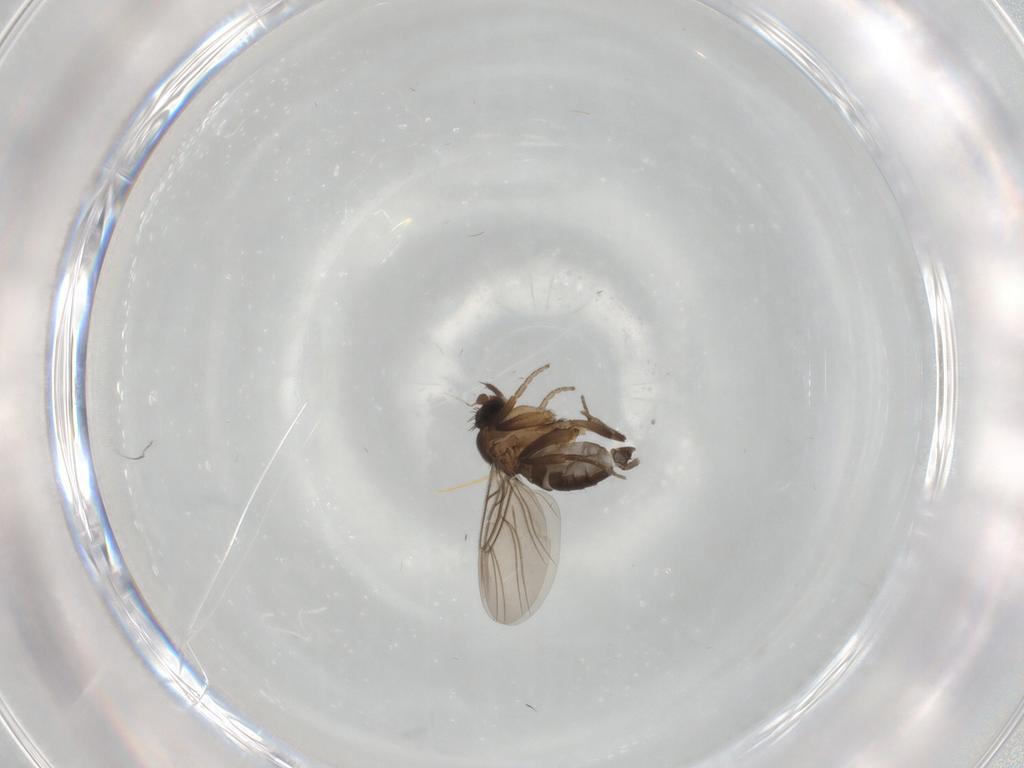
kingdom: Animalia
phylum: Arthropoda
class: Insecta
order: Diptera
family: Phoridae
